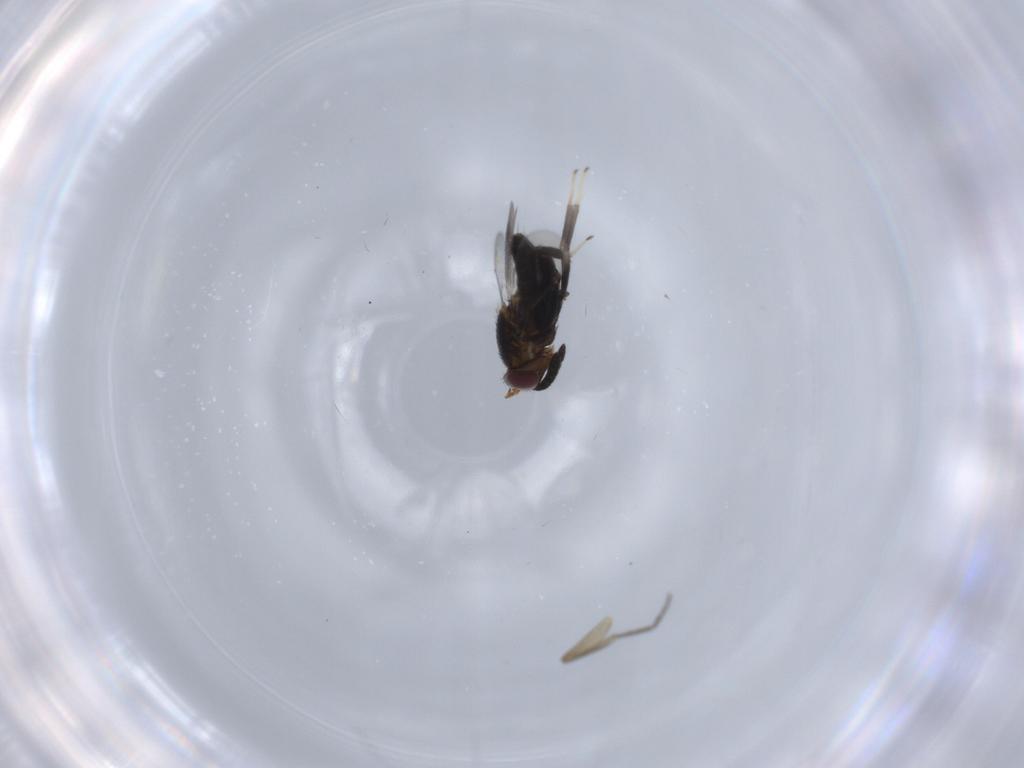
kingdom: Animalia
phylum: Arthropoda
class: Insecta
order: Hymenoptera
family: Aphelinidae
